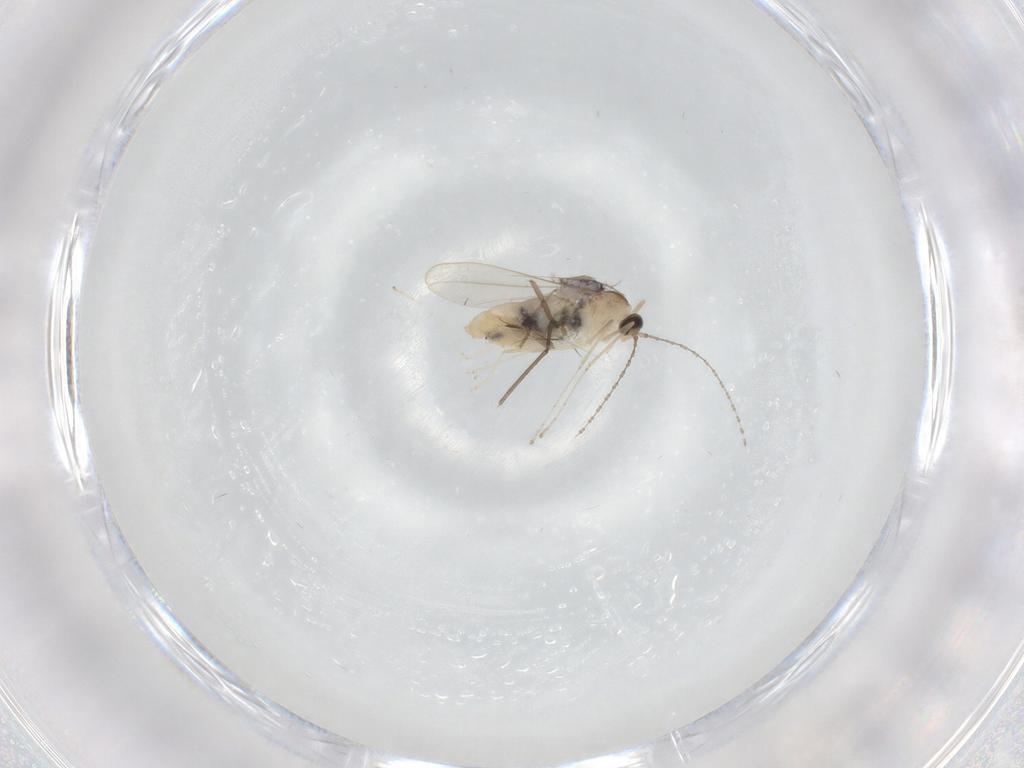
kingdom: Animalia
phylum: Arthropoda
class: Insecta
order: Diptera
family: Cecidomyiidae
